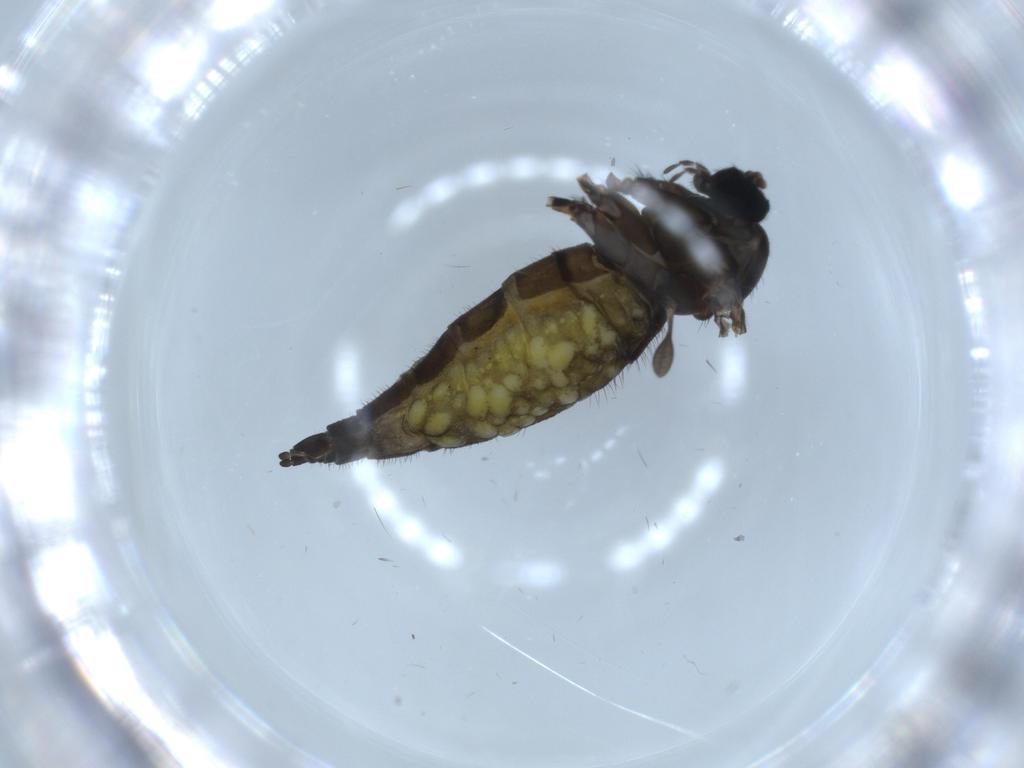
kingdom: Animalia
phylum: Arthropoda
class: Insecta
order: Diptera
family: Sciaridae
